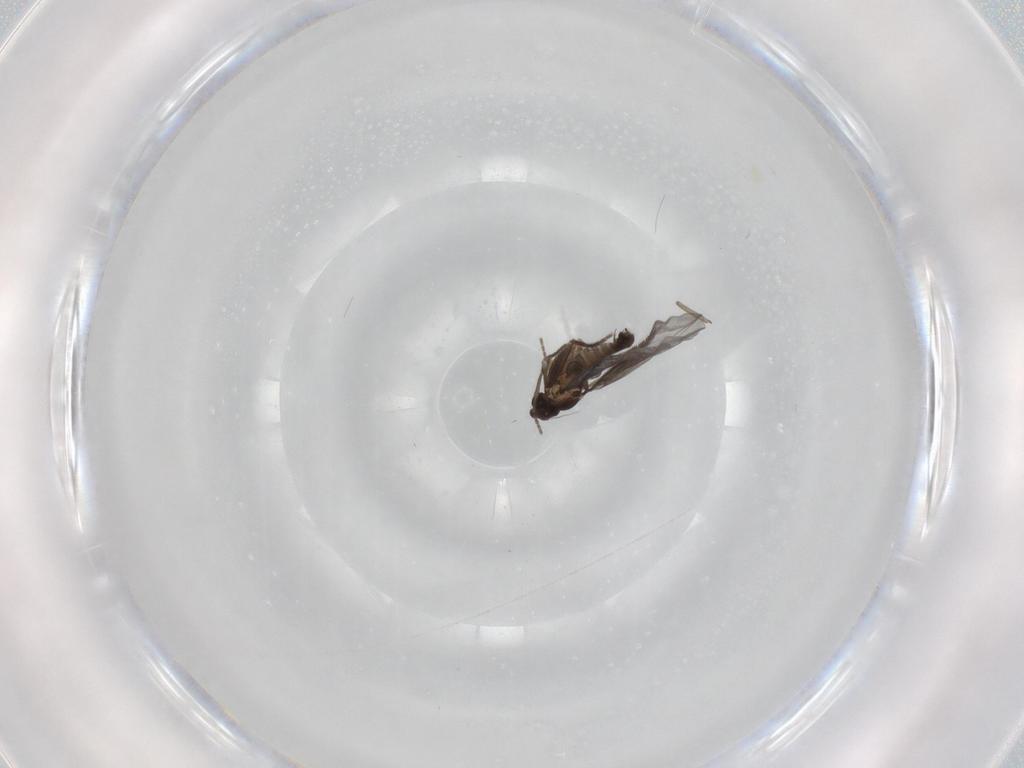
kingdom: Animalia
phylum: Arthropoda
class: Insecta
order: Diptera
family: Phoridae
